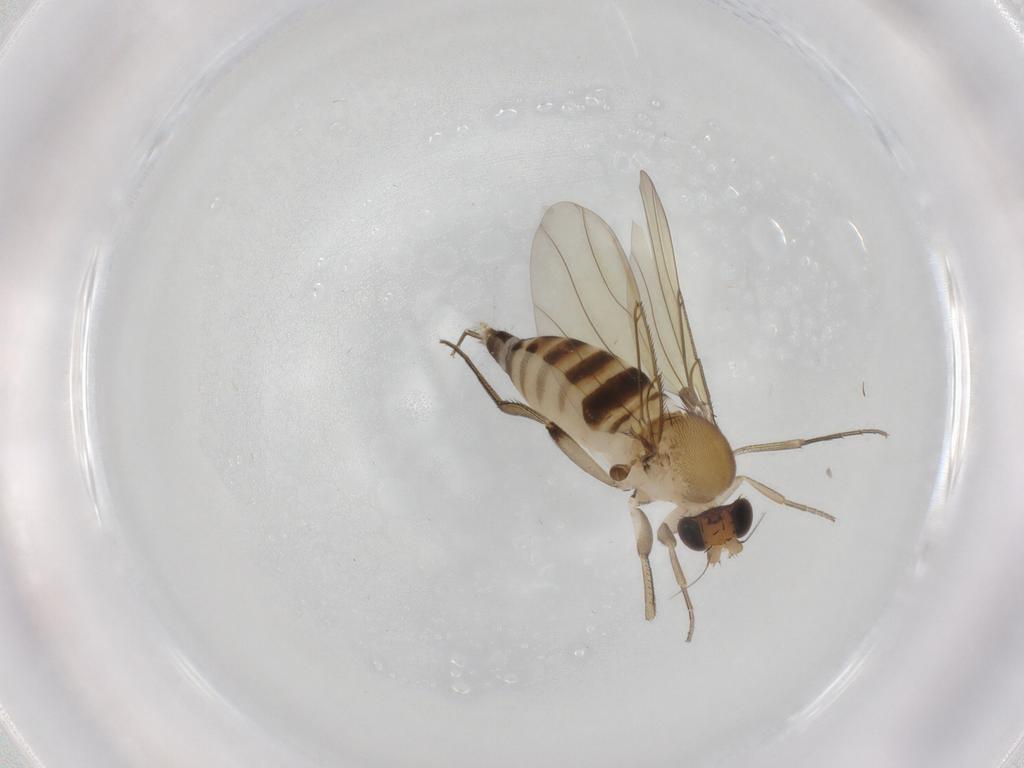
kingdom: Animalia
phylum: Arthropoda
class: Insecta
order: Diptera
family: Phoridae
